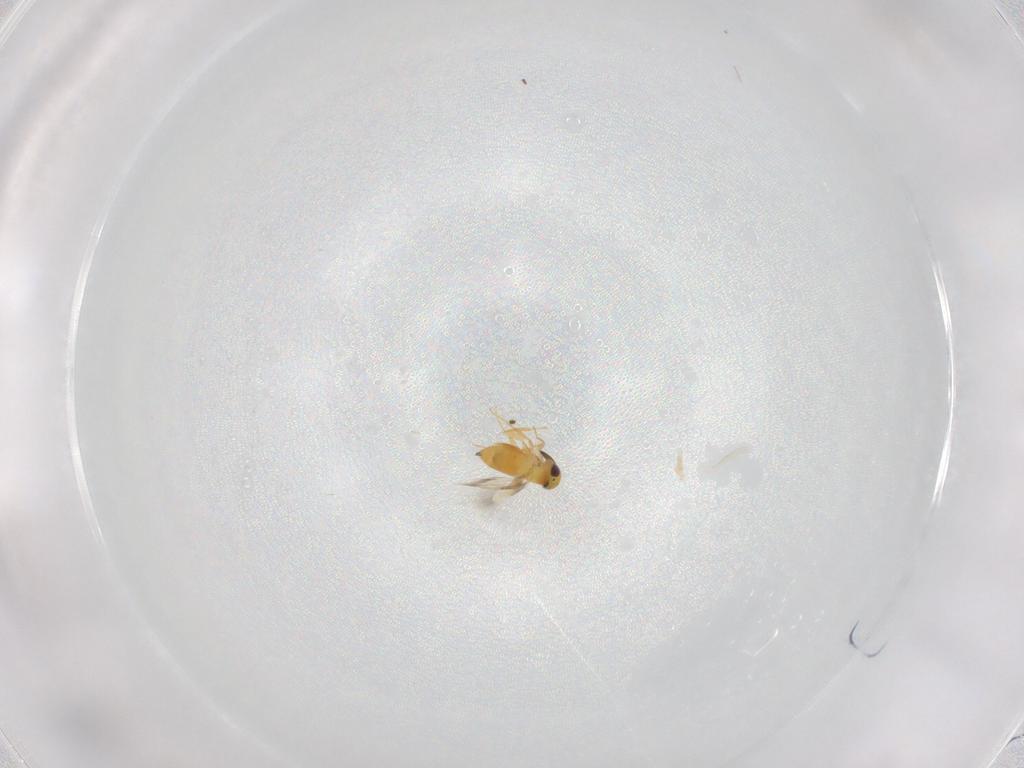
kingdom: Animalia
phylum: Arthropoda
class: Insecta
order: Hymenoptera
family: Signiphoridae
